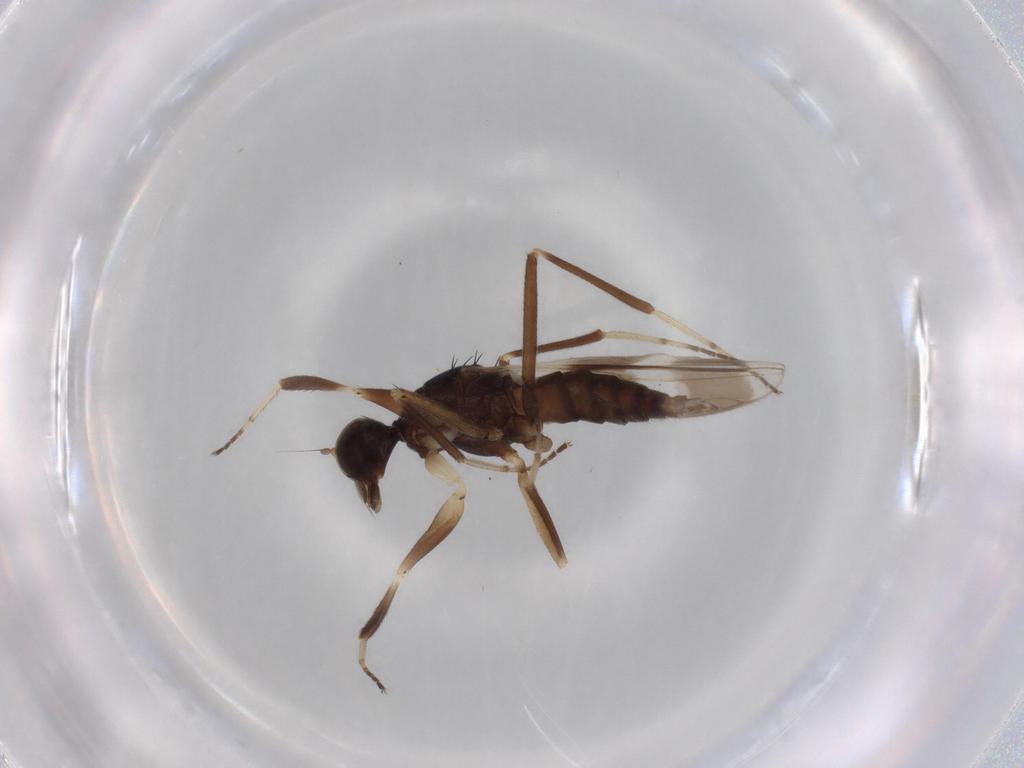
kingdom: Animalia
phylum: Arthropoda
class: Insecta
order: Diptera
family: Hybotidae
